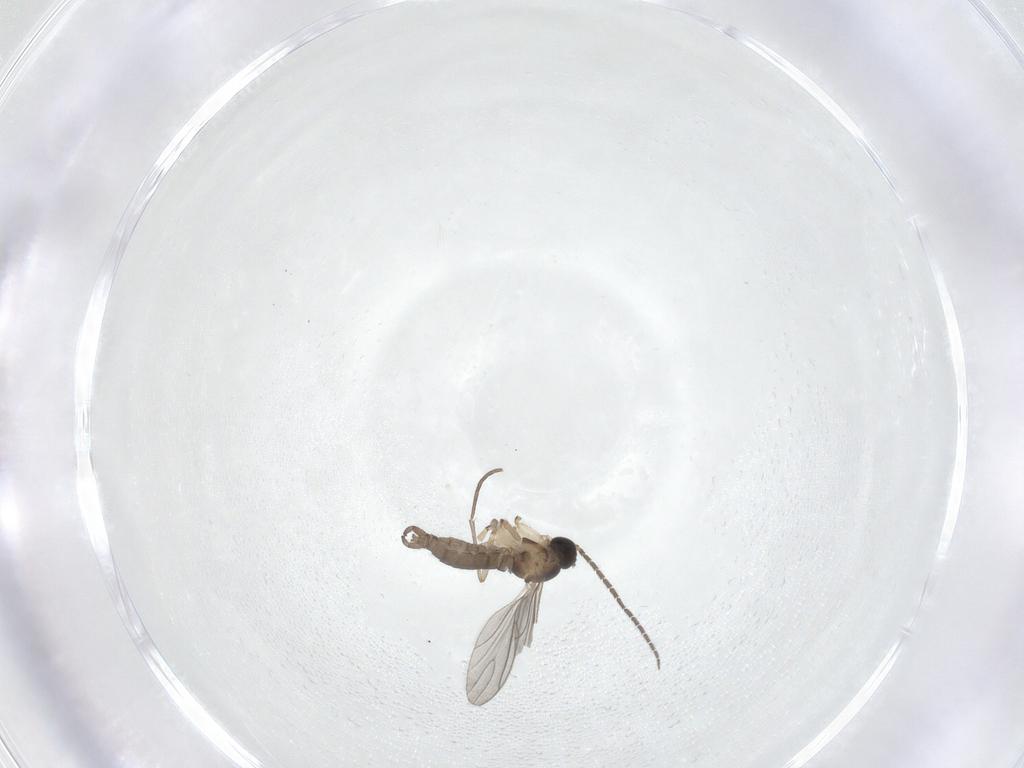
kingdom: Animalia
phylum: Arthropoda
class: Insecta
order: Diptera
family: Sciaridae
